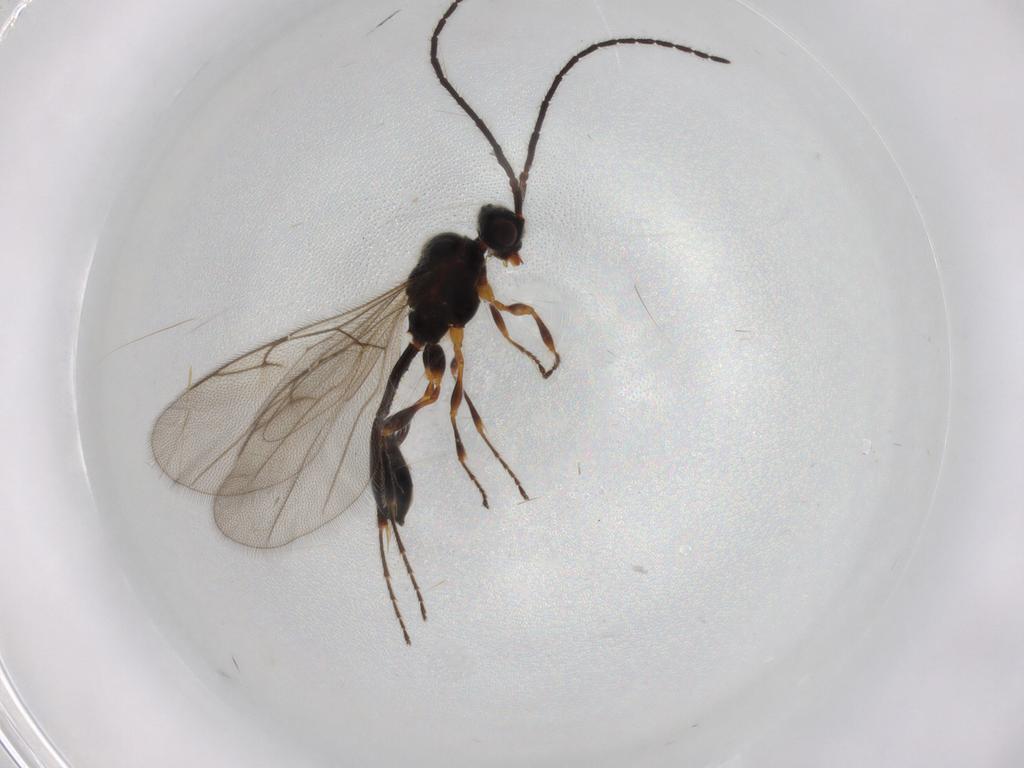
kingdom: Animalia
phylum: Arthropoda
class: Insecta
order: Hymenoptera
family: Diapriidae
